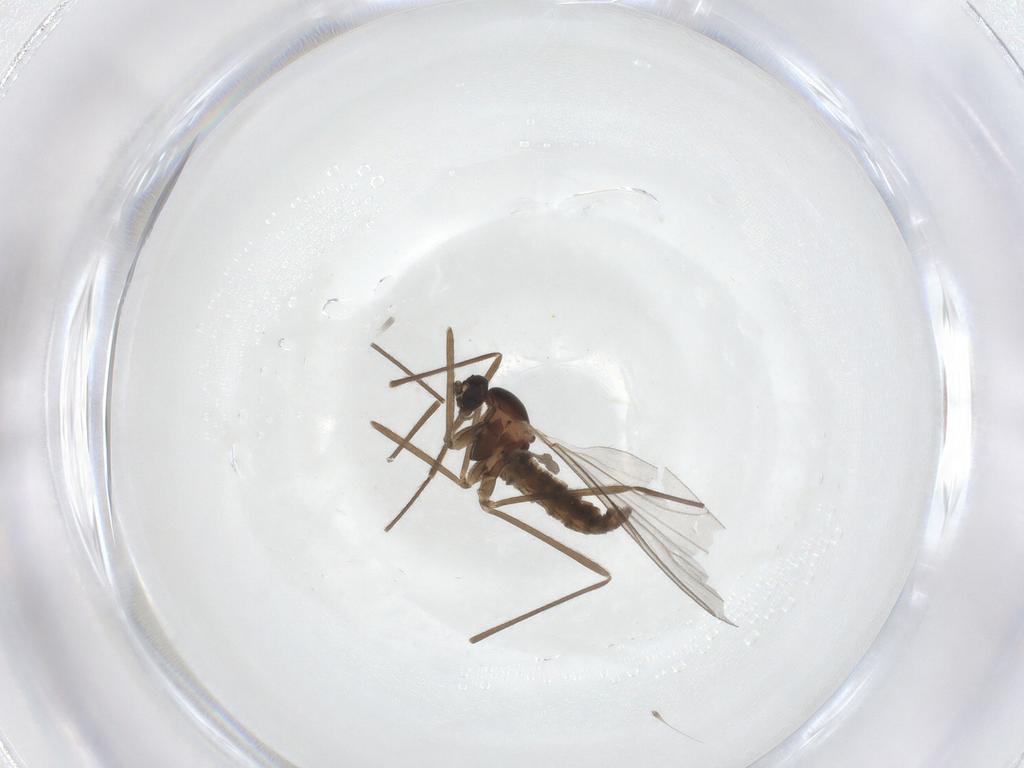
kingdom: Animalia
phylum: Arthropoda
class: Insecta
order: Diptera
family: Cecidomyiidae
